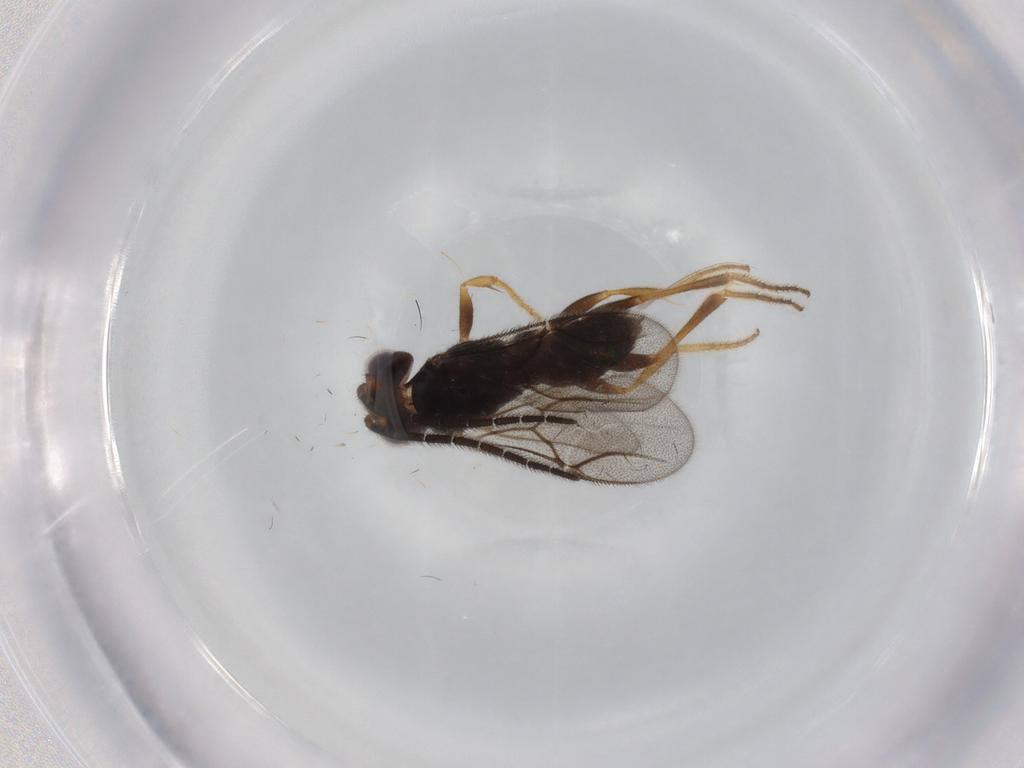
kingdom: Animalia
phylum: Arthropoda
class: Insecta
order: Hymenoptera
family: Dryinidae
